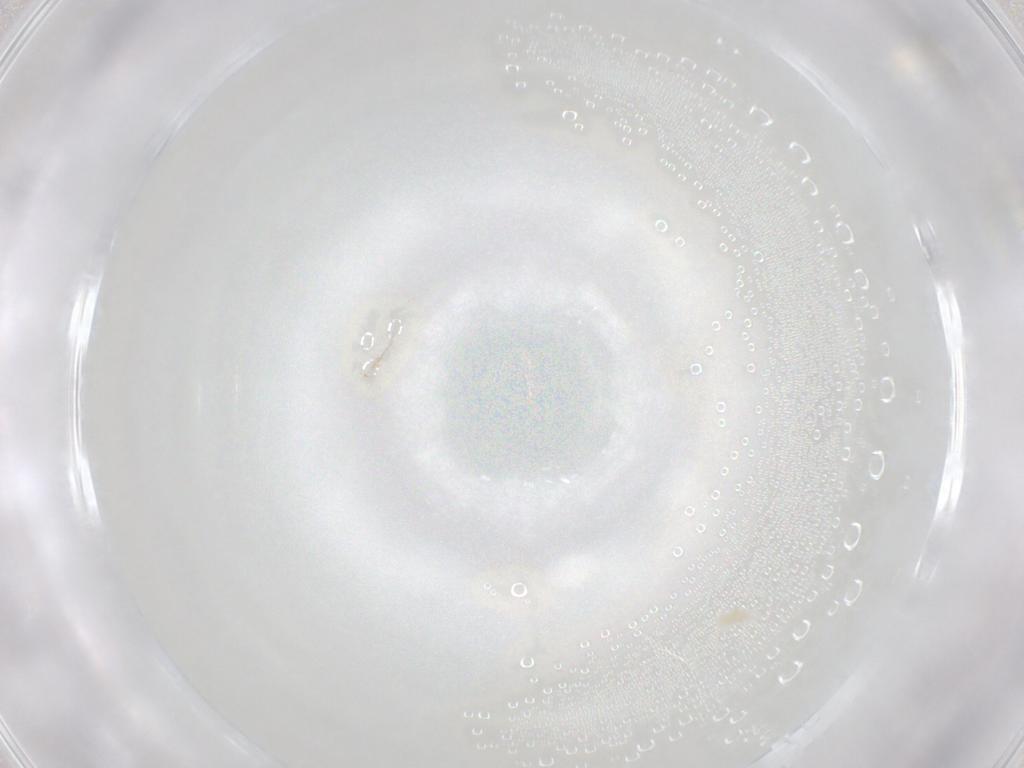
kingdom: Animalia
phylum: Arthropoda
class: Arachnida
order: Trombidiformes
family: Eupodidae
